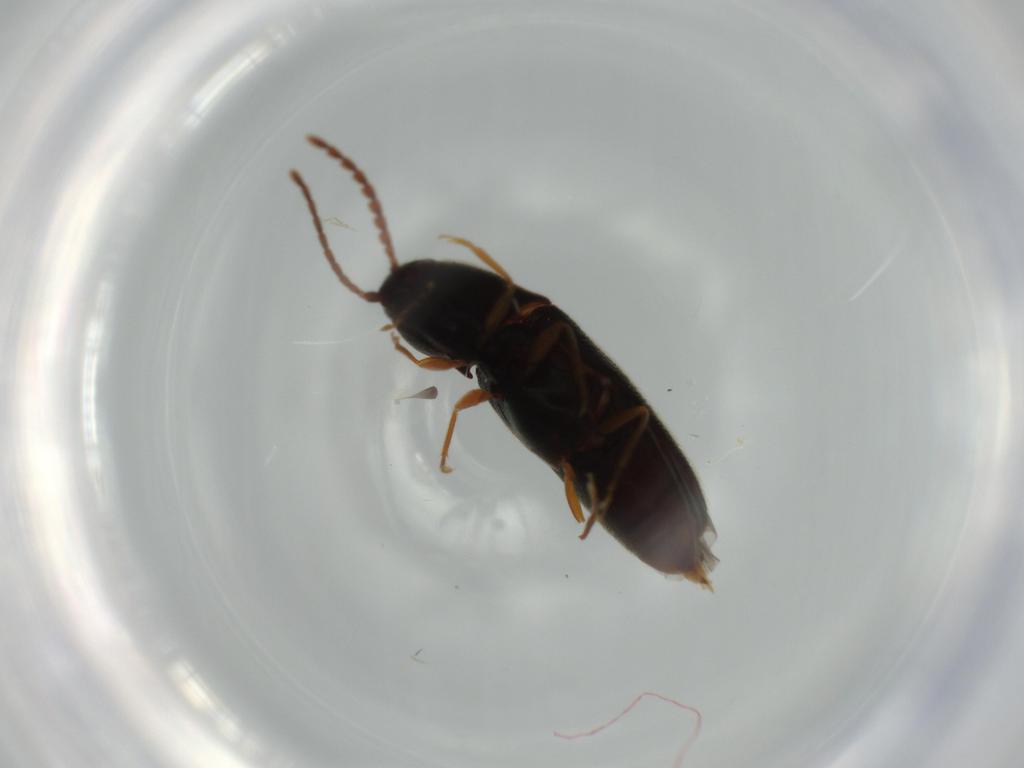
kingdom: Animalia
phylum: Arthropoda
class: Insecta
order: Coleoptera
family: Elateridae
